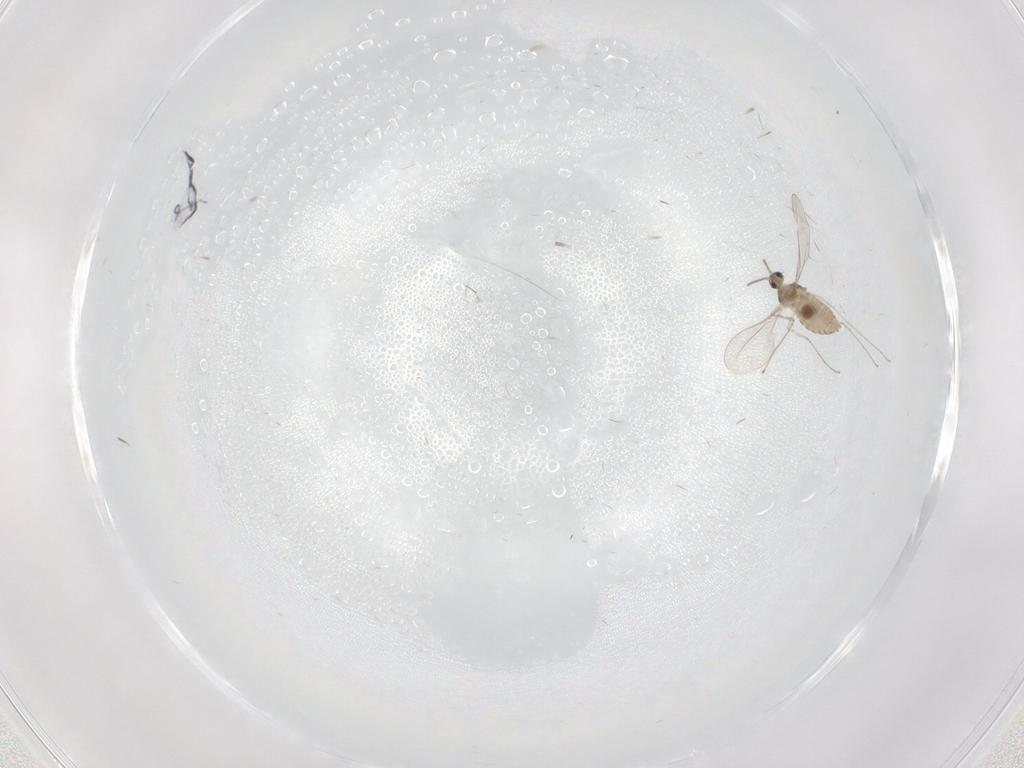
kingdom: Animalia
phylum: Arthropoda
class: Insecta
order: Diptera
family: Cecidomyiidae
